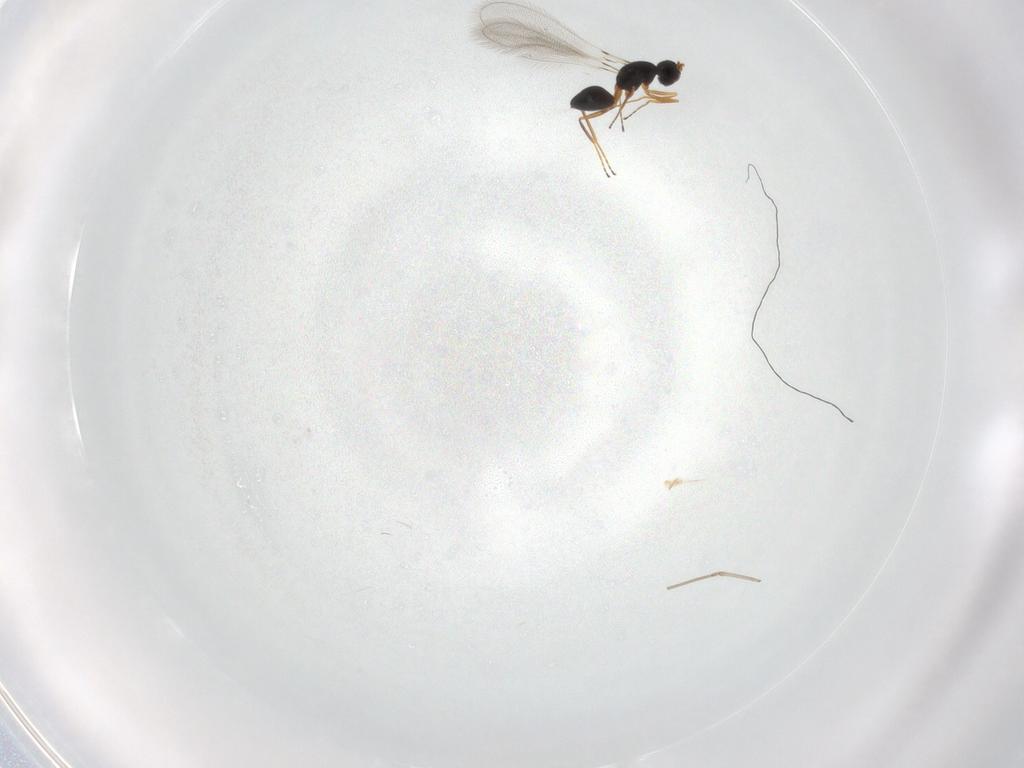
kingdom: Animalia
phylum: Arthropoda
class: Insecta
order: Hymenoptera
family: Mymaridae
